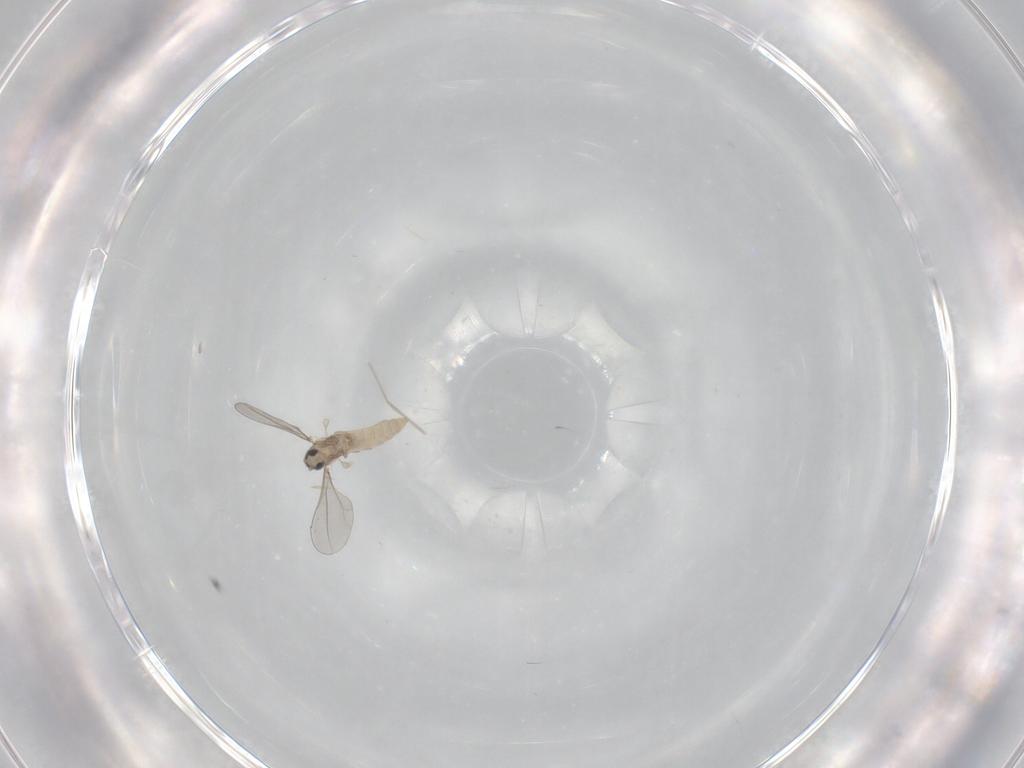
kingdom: Animalia
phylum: Arthropoda
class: Insecta
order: Diptera
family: Cecidomyiidae
